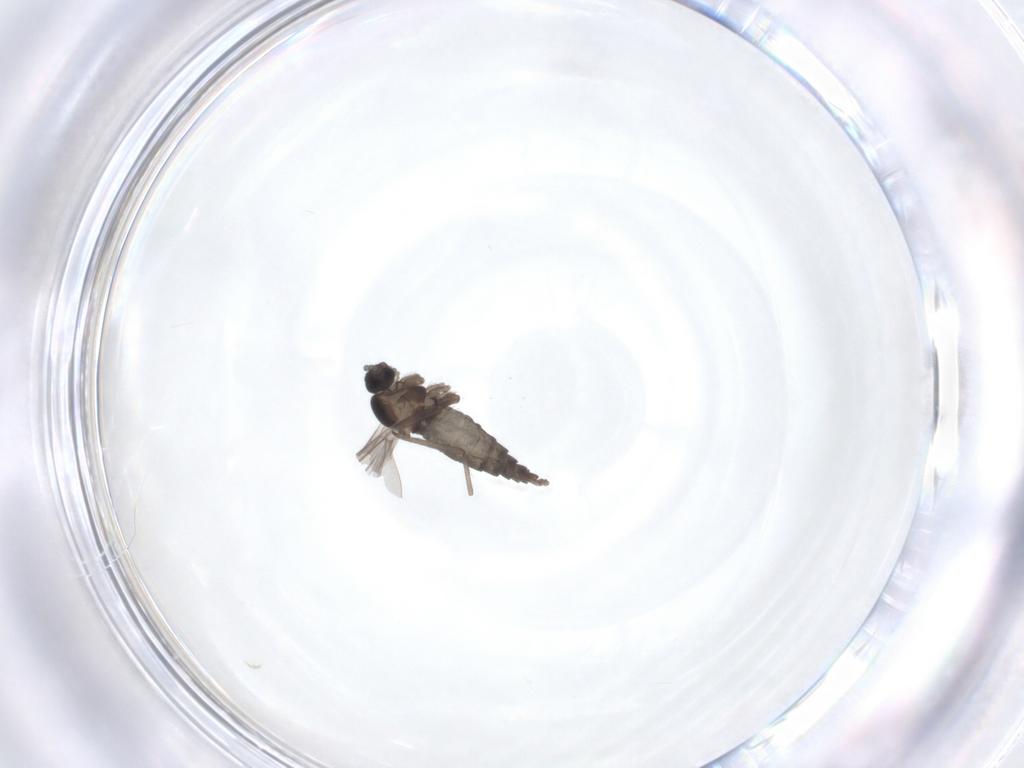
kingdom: Animalia
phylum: Arthropoda
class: Insecta
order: Diptera
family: Cecidomyiidae
